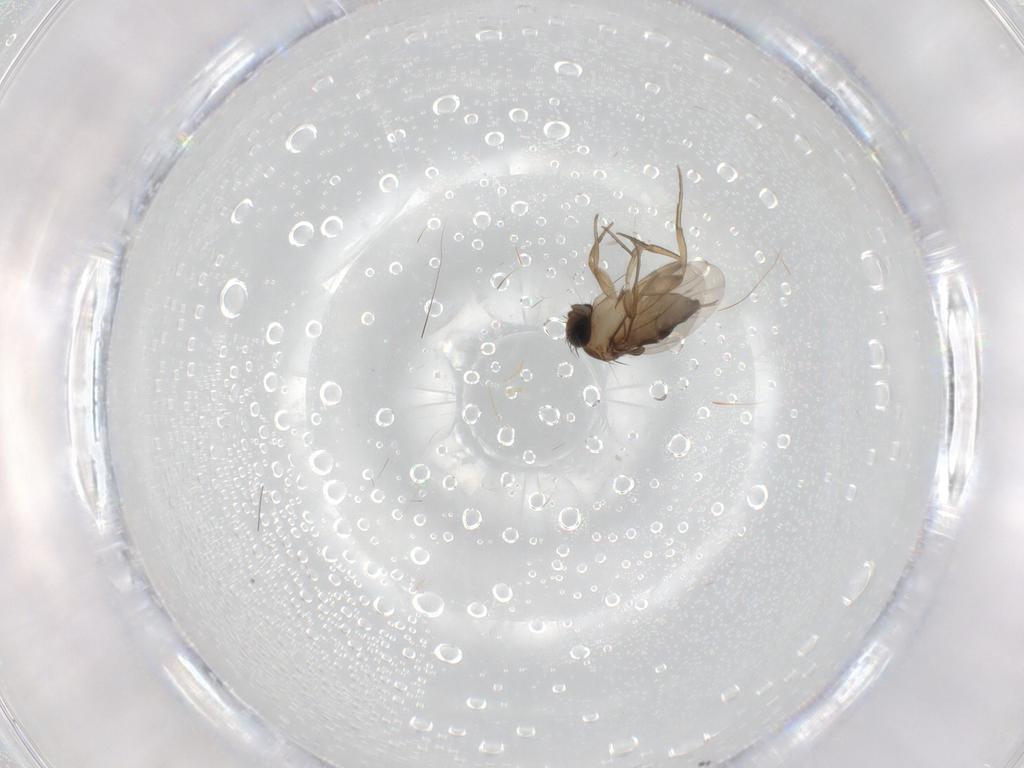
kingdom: Animalia
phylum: Arthropoda
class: Insecta
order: Diptera
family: Phoridae
